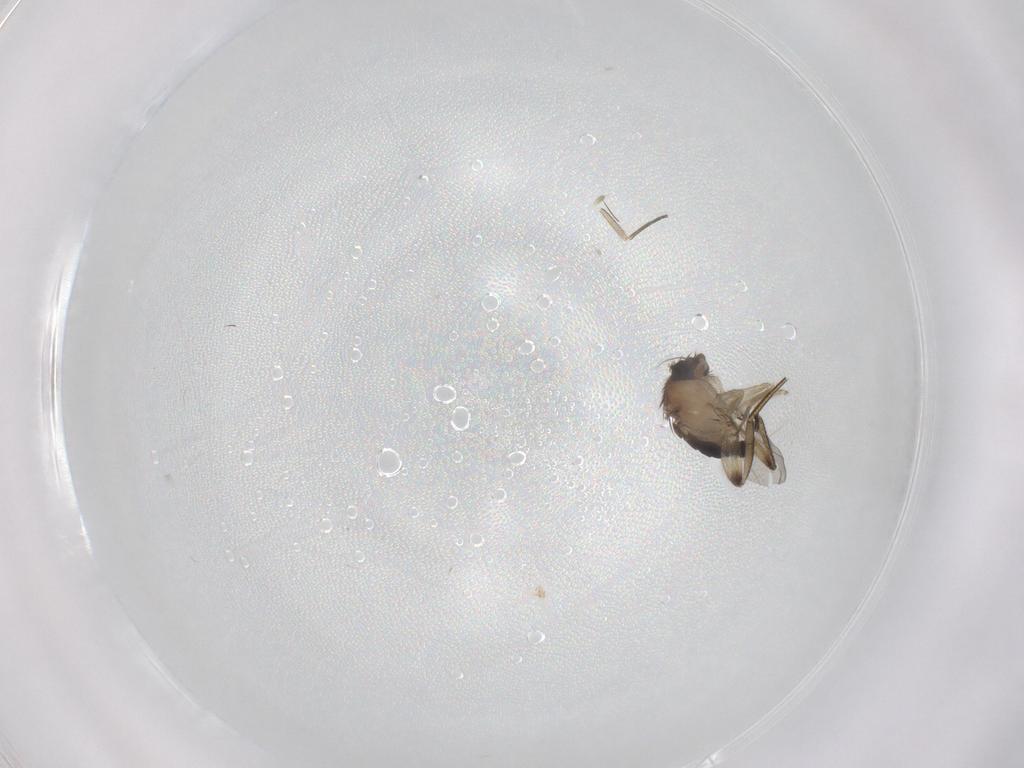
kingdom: Animalia
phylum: Arthropoda
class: Insecta
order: Diptera
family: Phoridae
